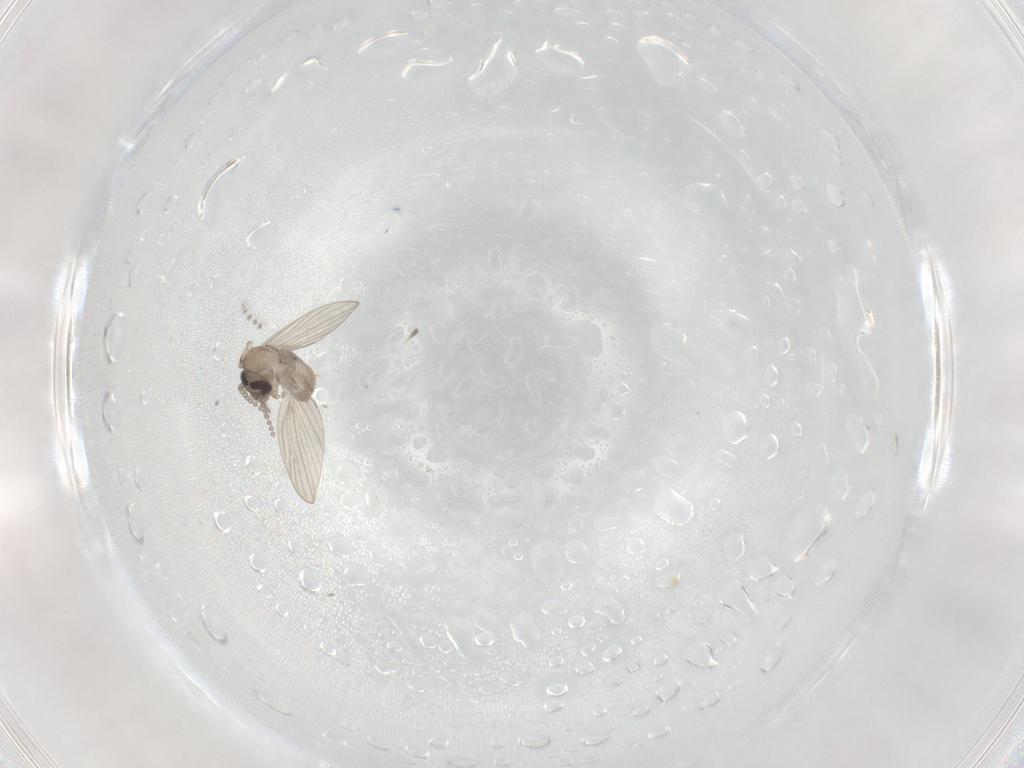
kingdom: Animalia
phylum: Arthropoda
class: Insecta
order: Diptera
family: Psychodidae
